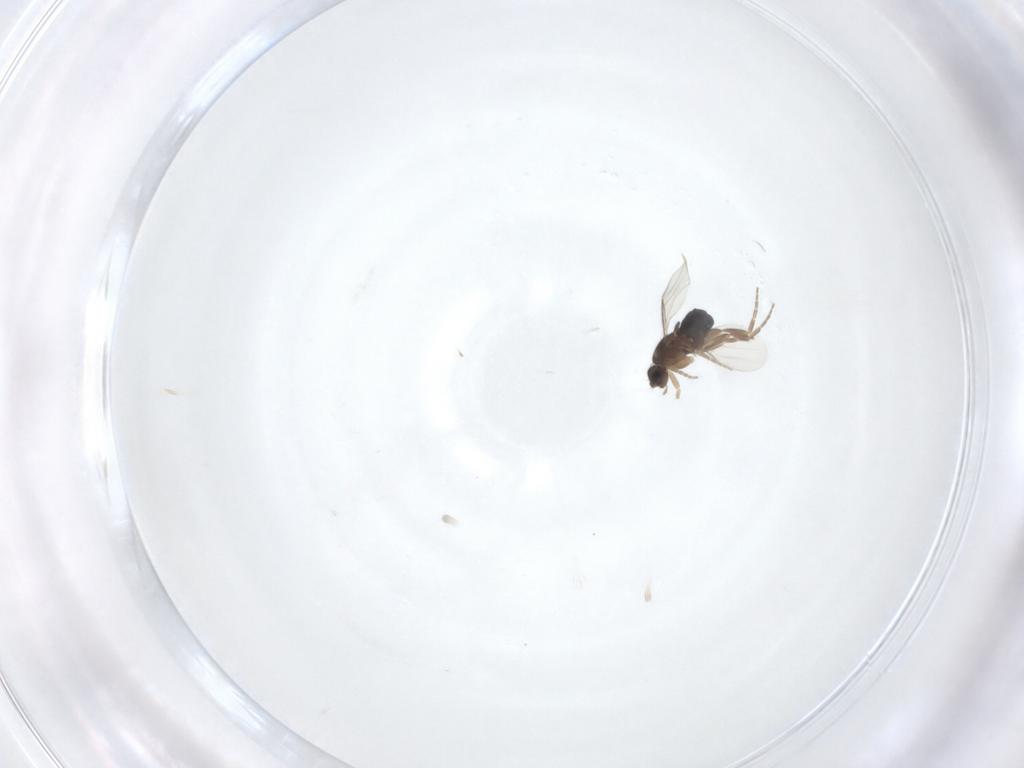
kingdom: Animalia
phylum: Arthropoda
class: Insecta
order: Diptera
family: Phoridae
